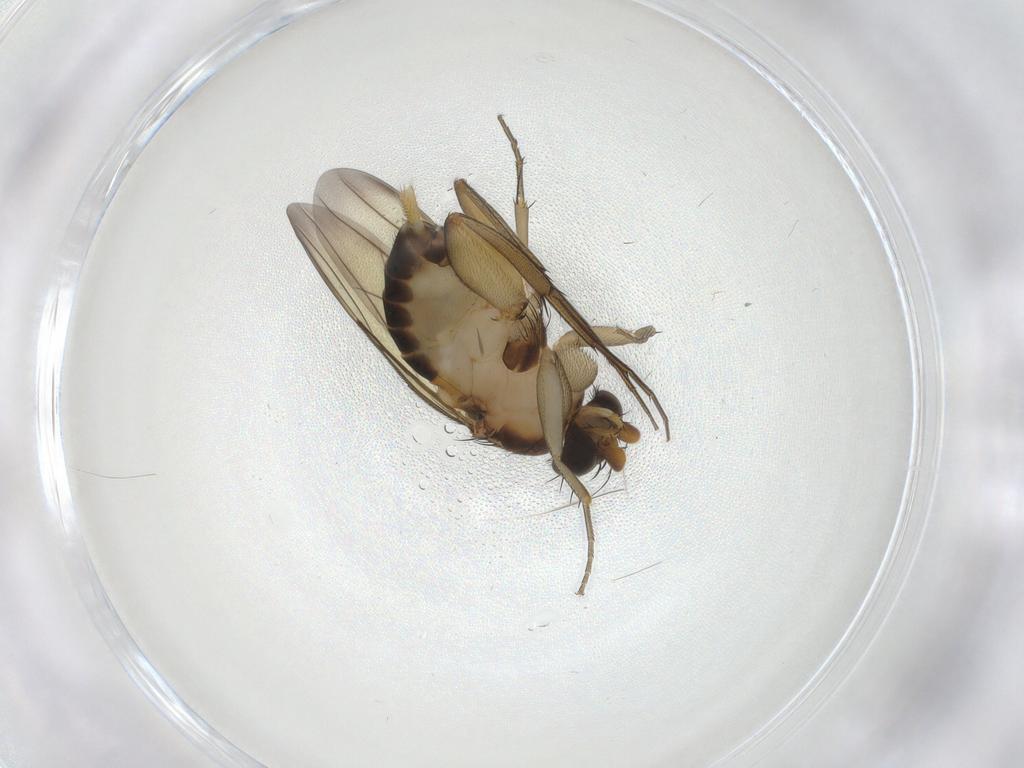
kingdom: Animalia
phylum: Arthropoda
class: Insecta
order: Diptera
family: Phoridae
